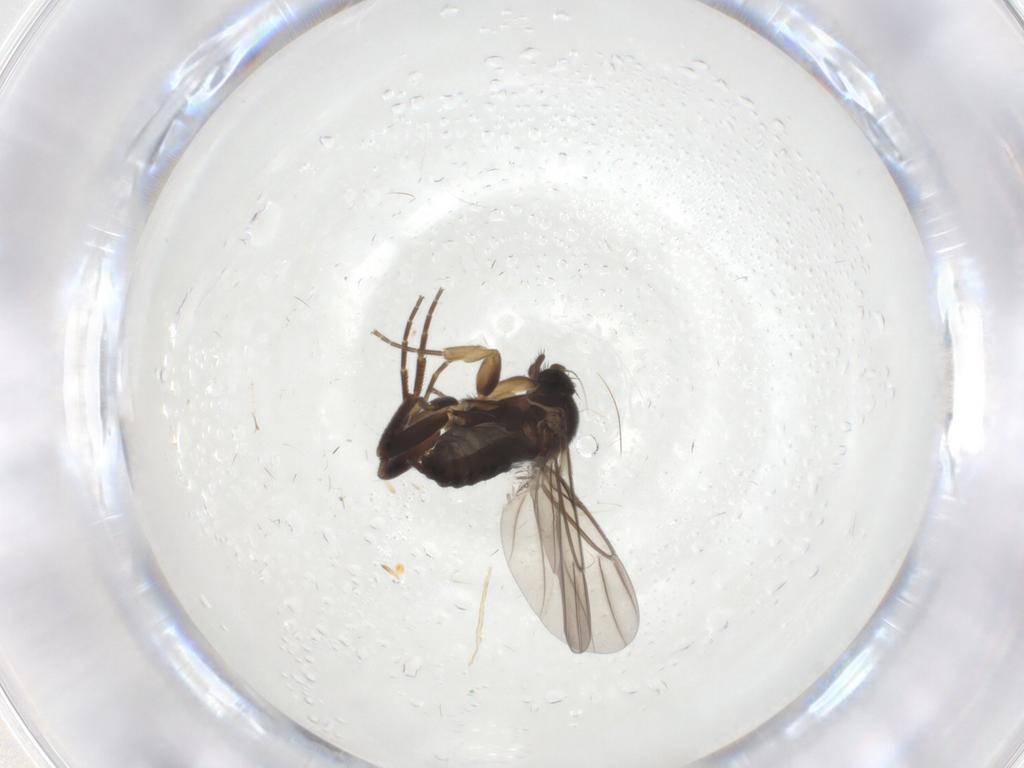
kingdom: Animalia
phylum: Arthropoda
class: Insecta
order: Diptera
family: Phoridae
